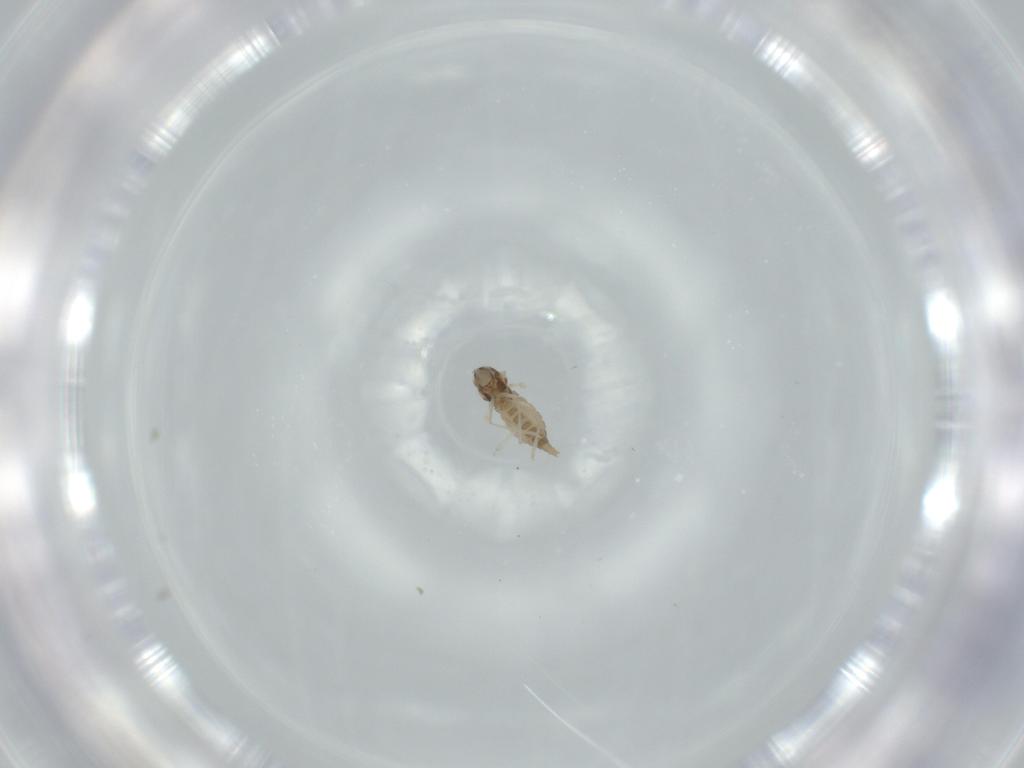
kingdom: Animalia
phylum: Arthropoda
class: Insecta
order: Diptera
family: Cecidomyiidae
